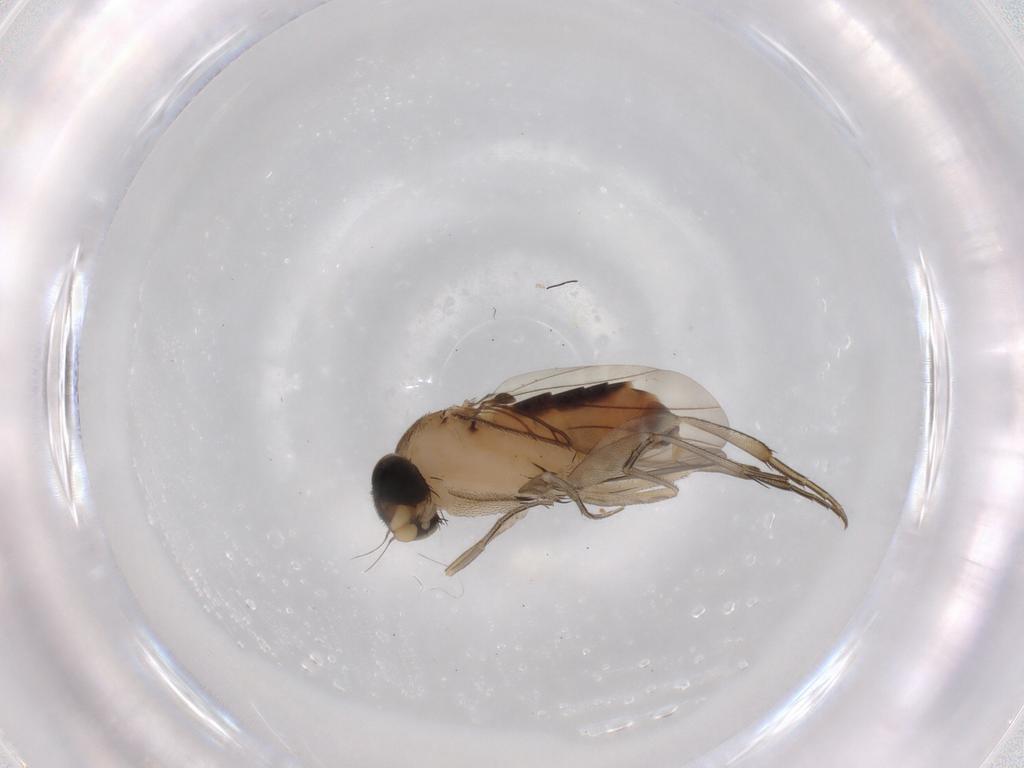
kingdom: Animalia
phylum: Arthropoda
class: Insecta
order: Diptera
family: Phoridae
